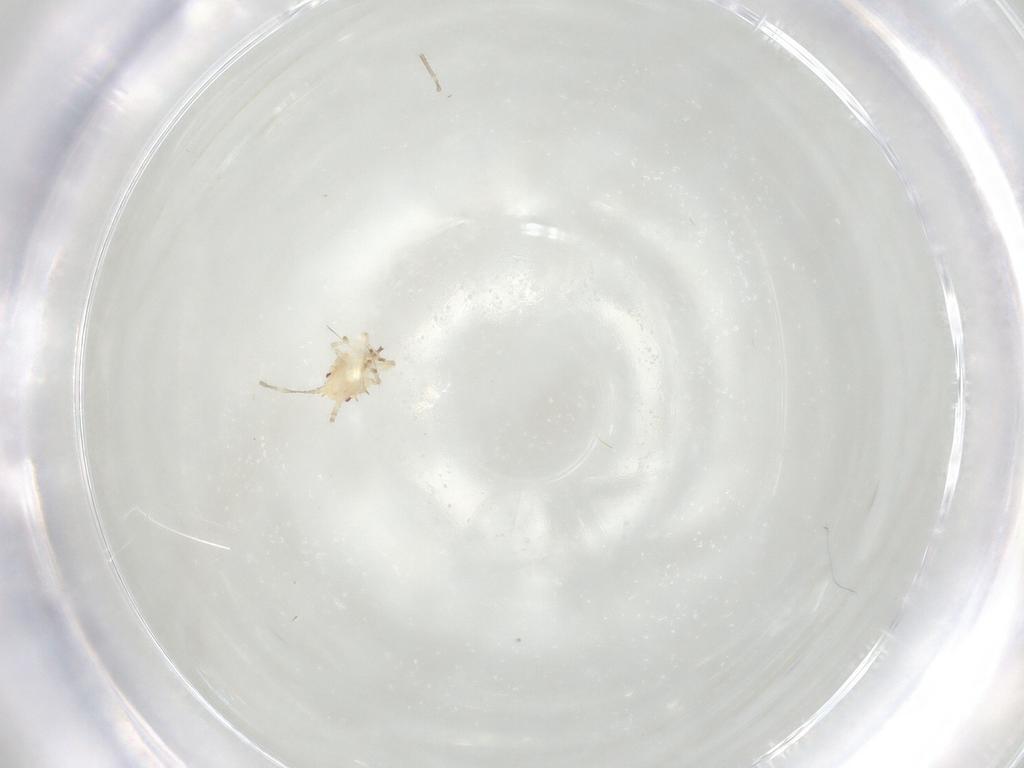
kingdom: Animalia
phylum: Arthropoda
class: Insecta
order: Hemiptera
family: Tingidae
